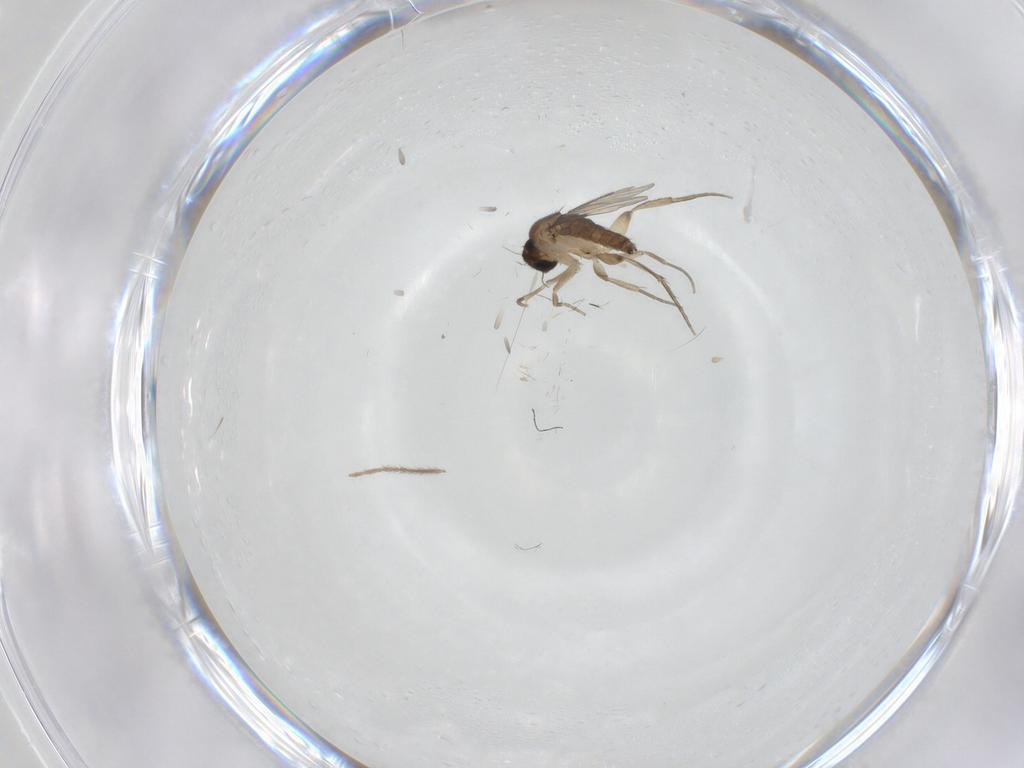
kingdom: Animalia
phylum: Arthropoda
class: Insecta
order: Diptera
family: Phoridae
